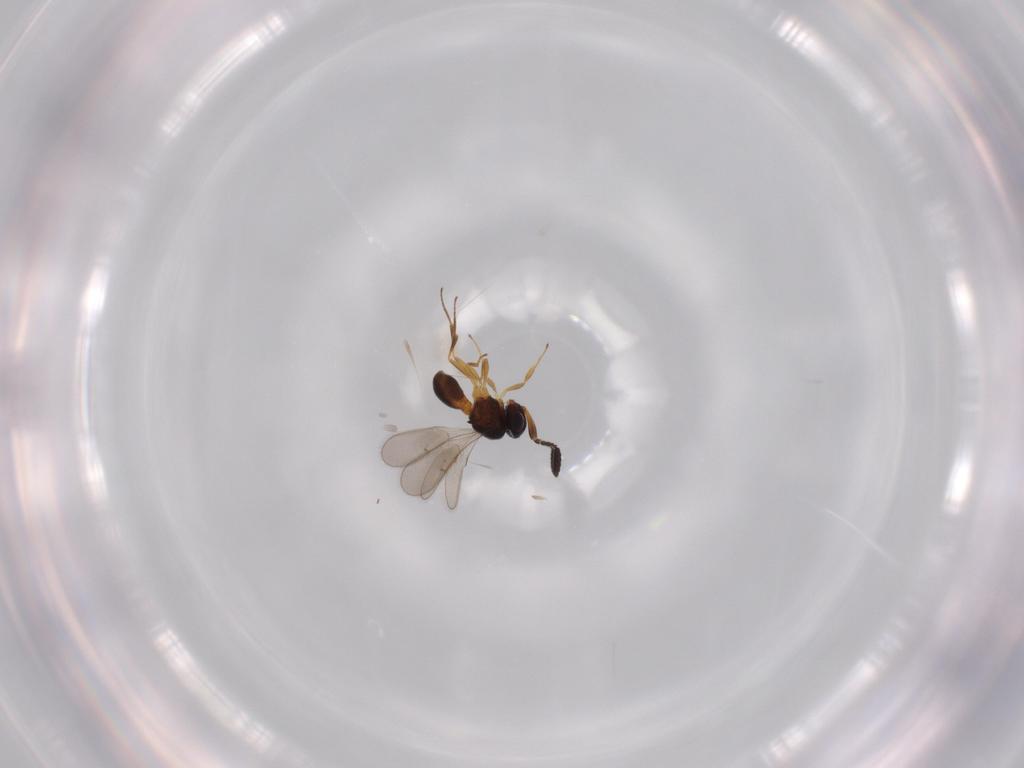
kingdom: Animalia
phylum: Arthropoda
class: Insecta
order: Hymenoptera
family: Scelionidae
